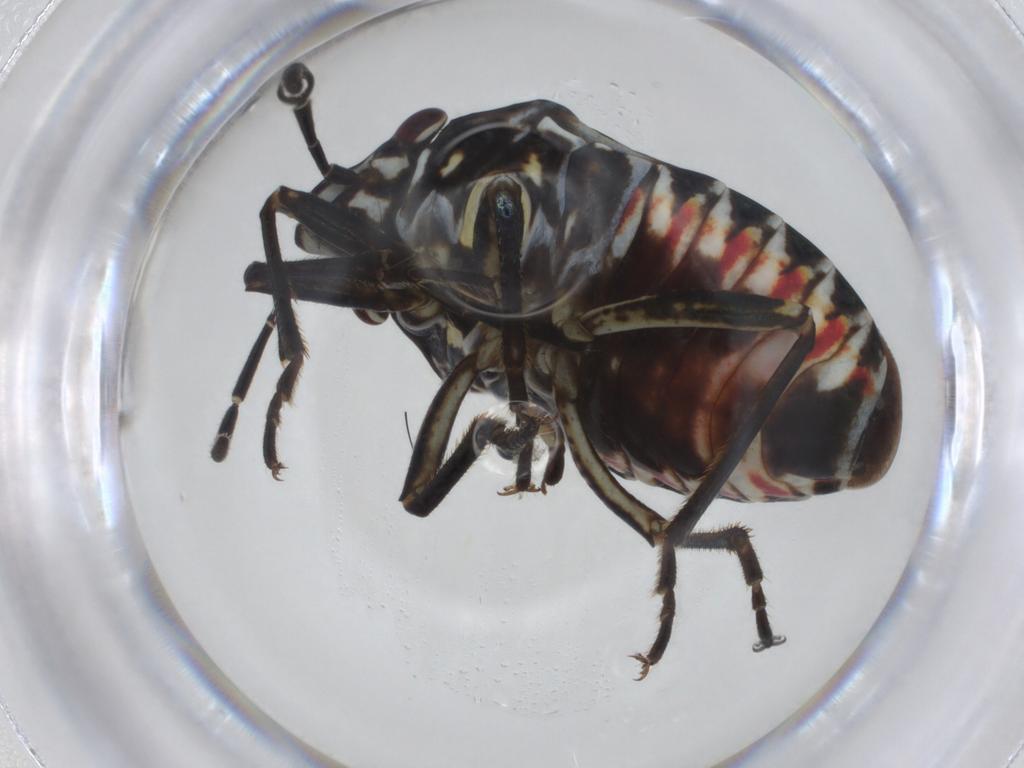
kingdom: Animalia
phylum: Arthropoda
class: Insecta
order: Hemiptera
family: Pentatomidae
